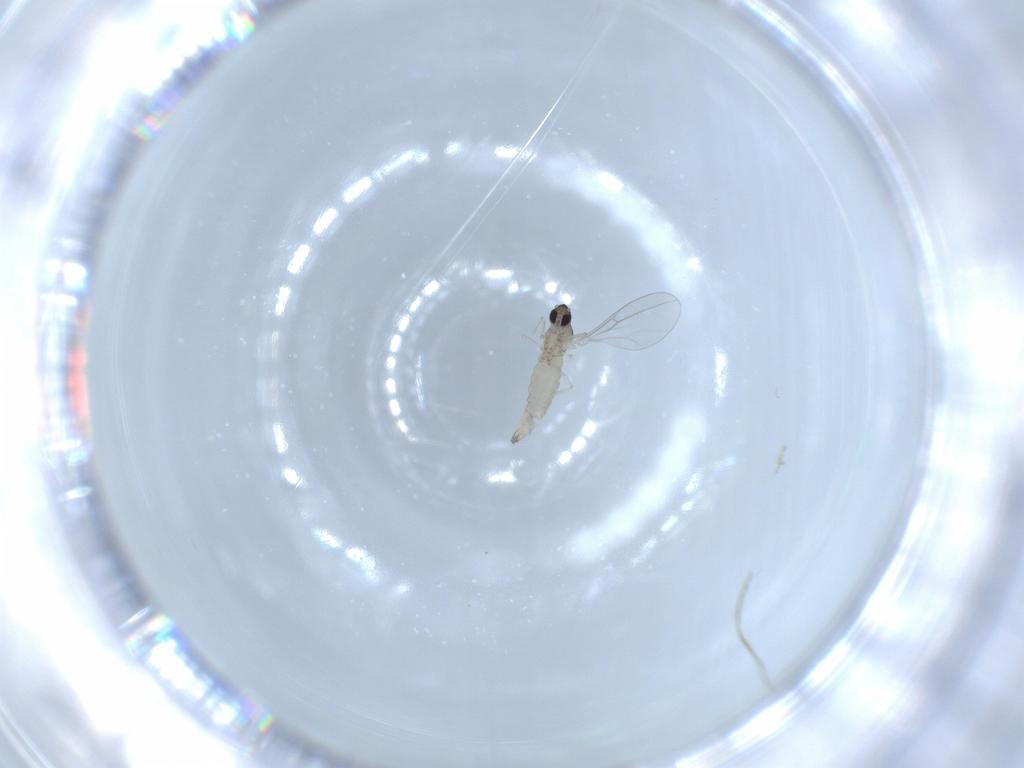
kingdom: Animalia
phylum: Arthropoda
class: Insecta
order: Diptera
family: Cecidomyiidae
